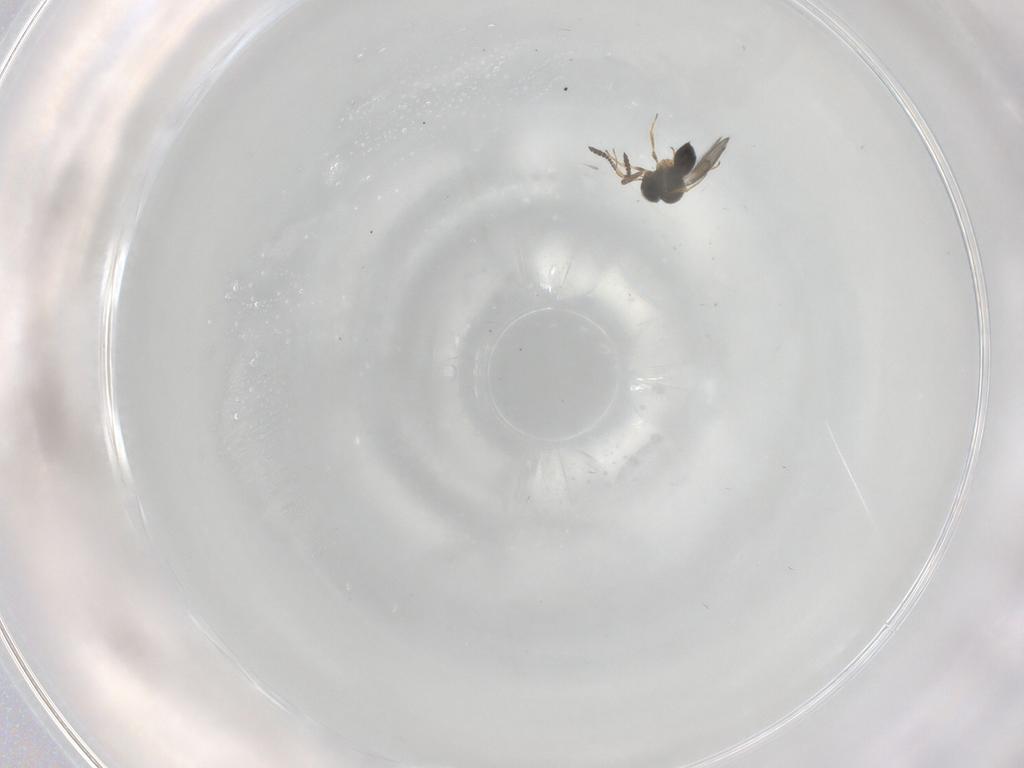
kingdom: Animalia
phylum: Arthropoda
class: Insecta
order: Hymenoptera
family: Scelionidae
